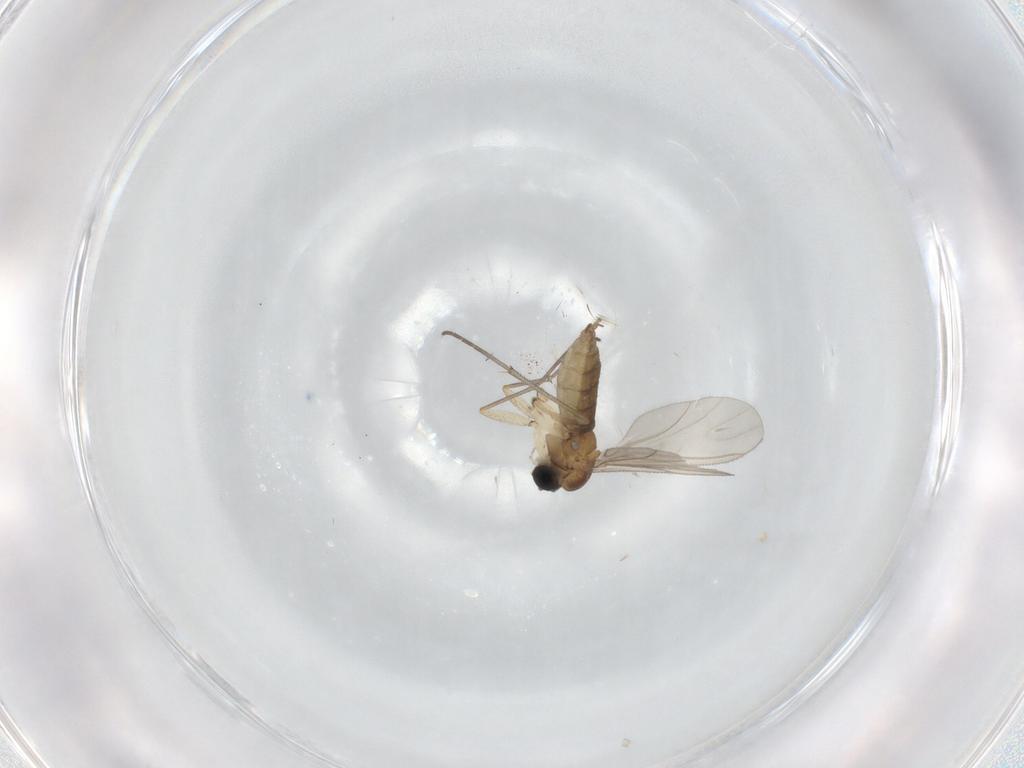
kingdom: Animalia
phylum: Arthropoda
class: Insecta
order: Diptera
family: Sciaridae
